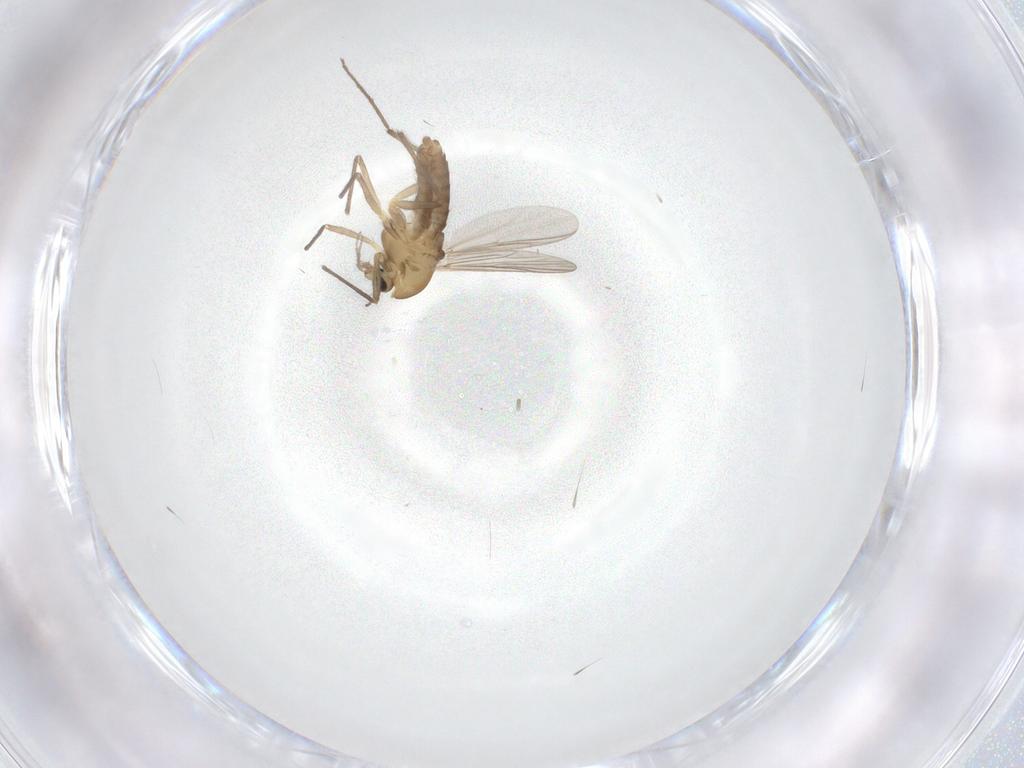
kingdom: Animalia
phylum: Arthropoda
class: Insecta
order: Diptera
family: Chironomidae
